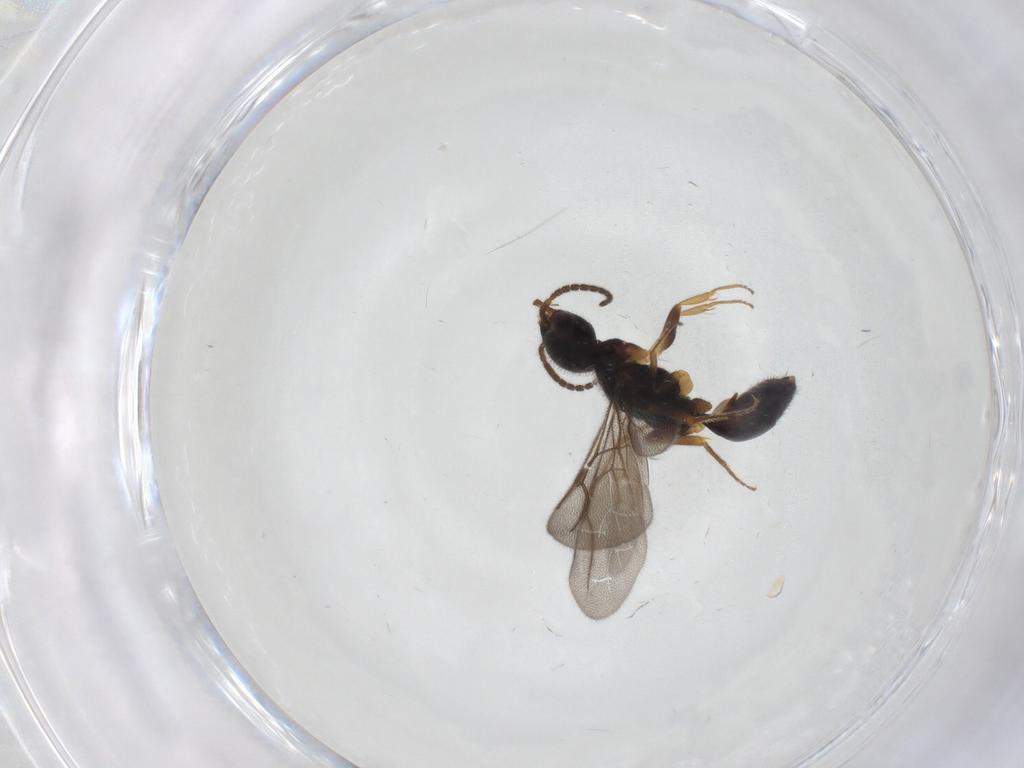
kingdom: Animalia
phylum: Arthropoda
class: Insecta
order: Hymenoptera
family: Bethylidae
